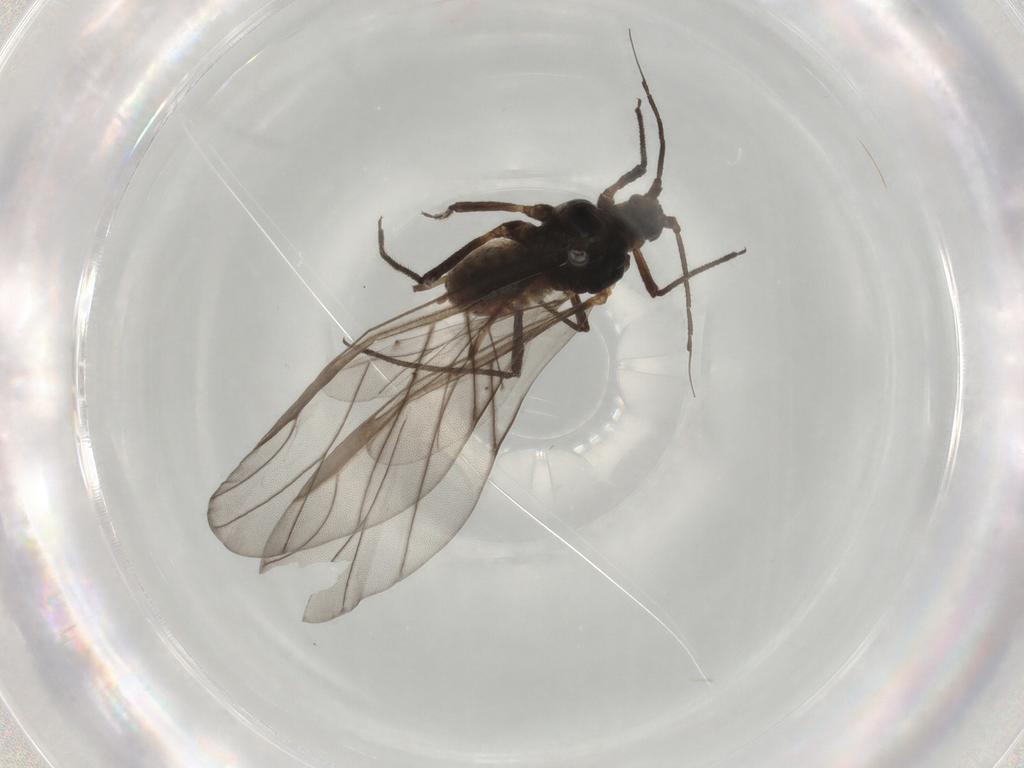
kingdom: Animalia
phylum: Arthropoda
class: Insecta
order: Hemiptera
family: Aphididae
